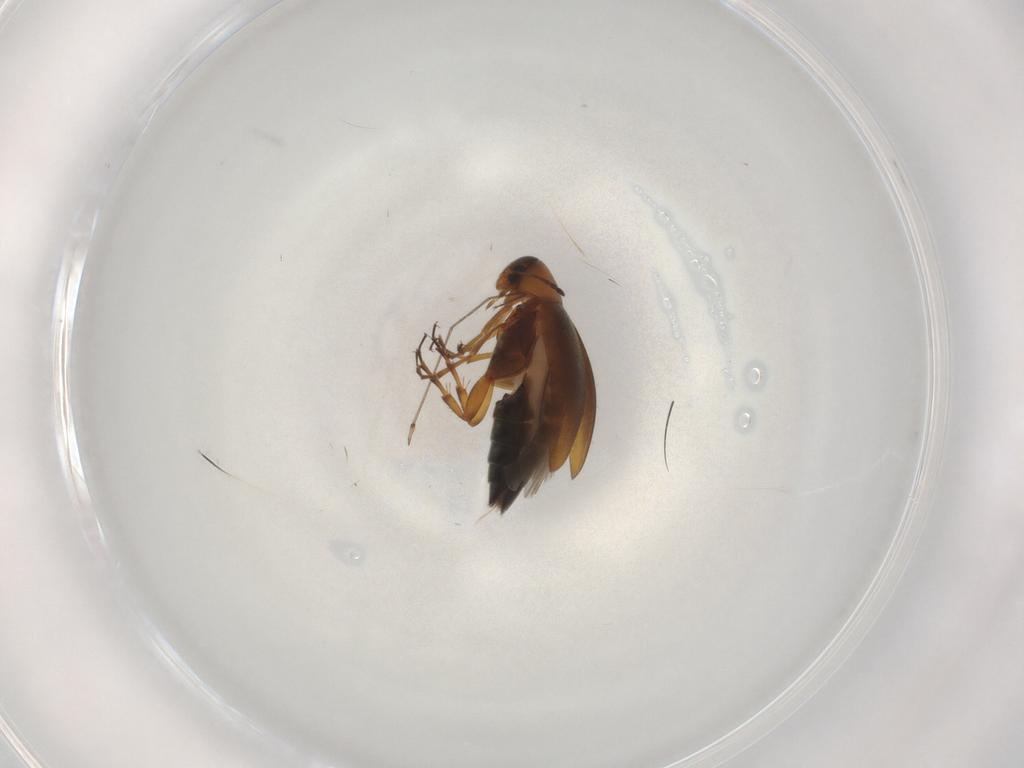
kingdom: Animalia
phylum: Arthropoda
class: Insecta
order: Coleoptera
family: Scraptiidae
